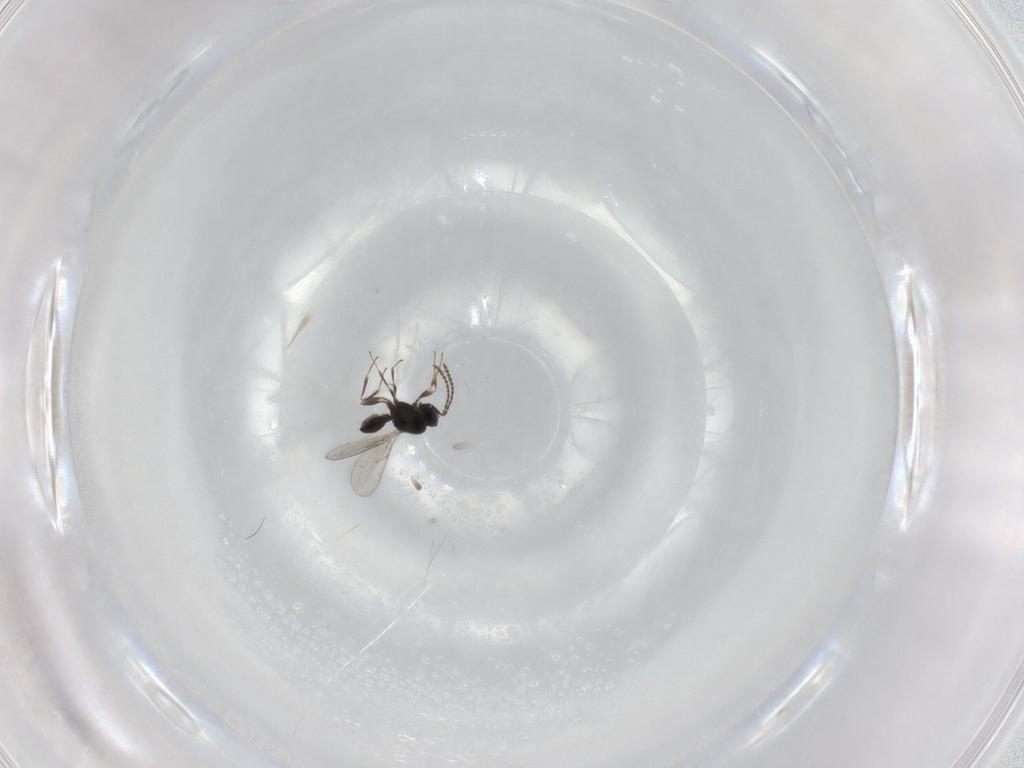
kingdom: Animalia
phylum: Arthropoda
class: Insecta
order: Hymenoptera
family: Scelionidae
